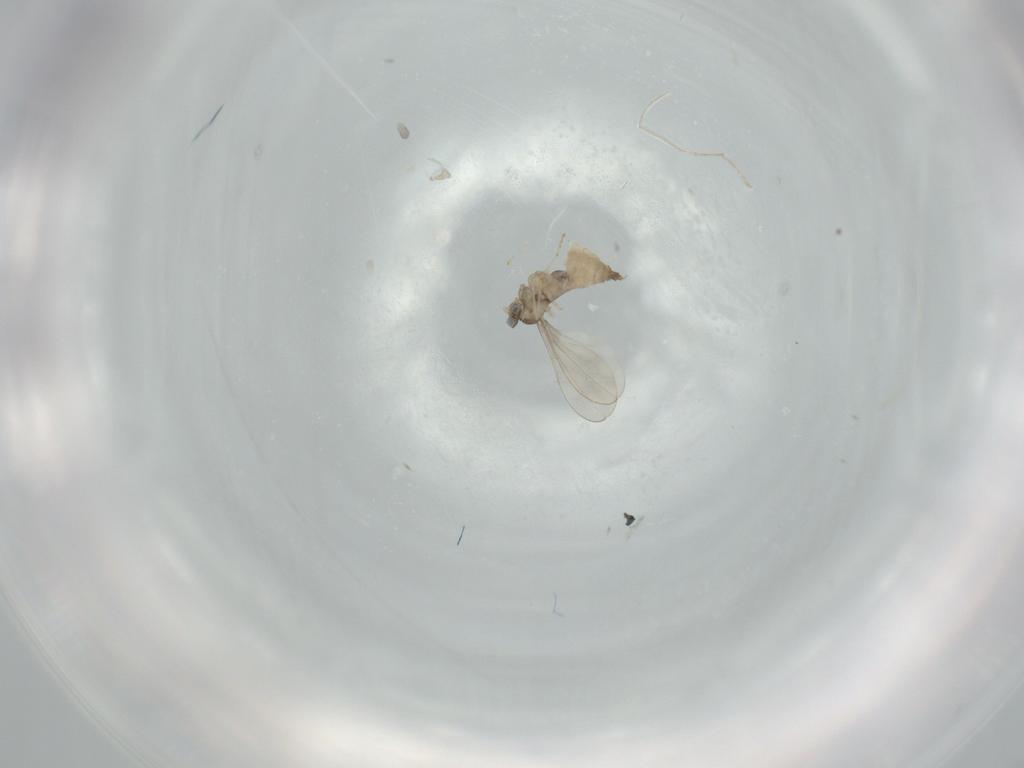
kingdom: Animalia
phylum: Arthropoda
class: Insecta
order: Diptera
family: Cecidomyiidae
